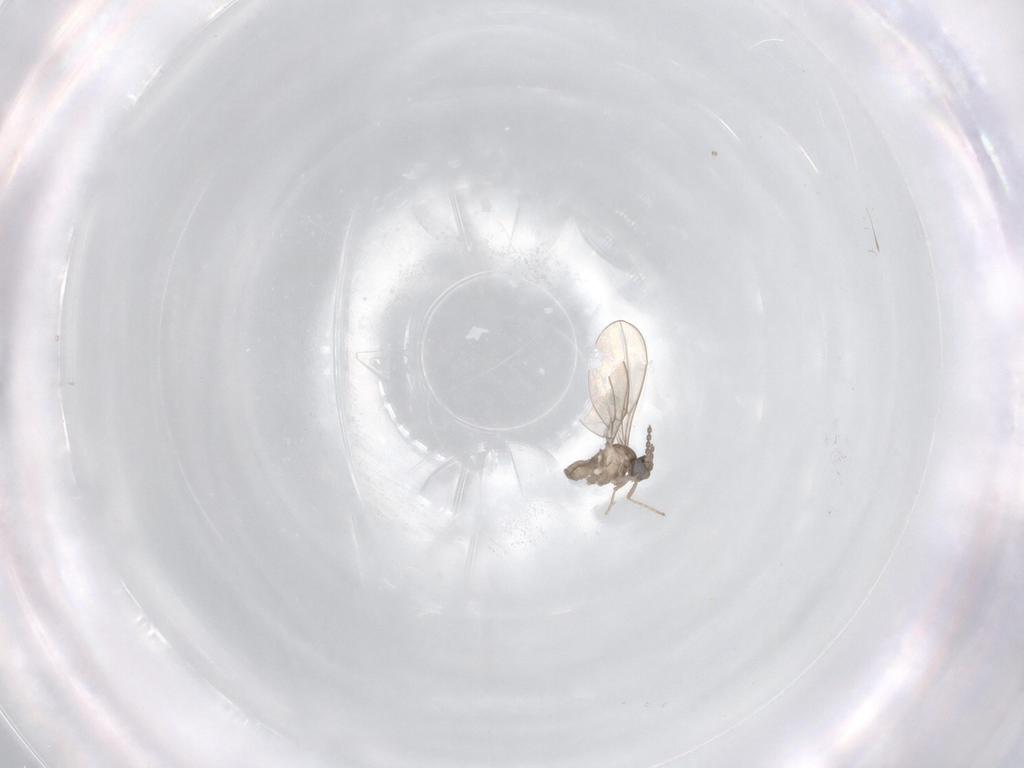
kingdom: Animalia
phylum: Arthropoda
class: Insecta
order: Diptera
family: Cecidomyiidae
